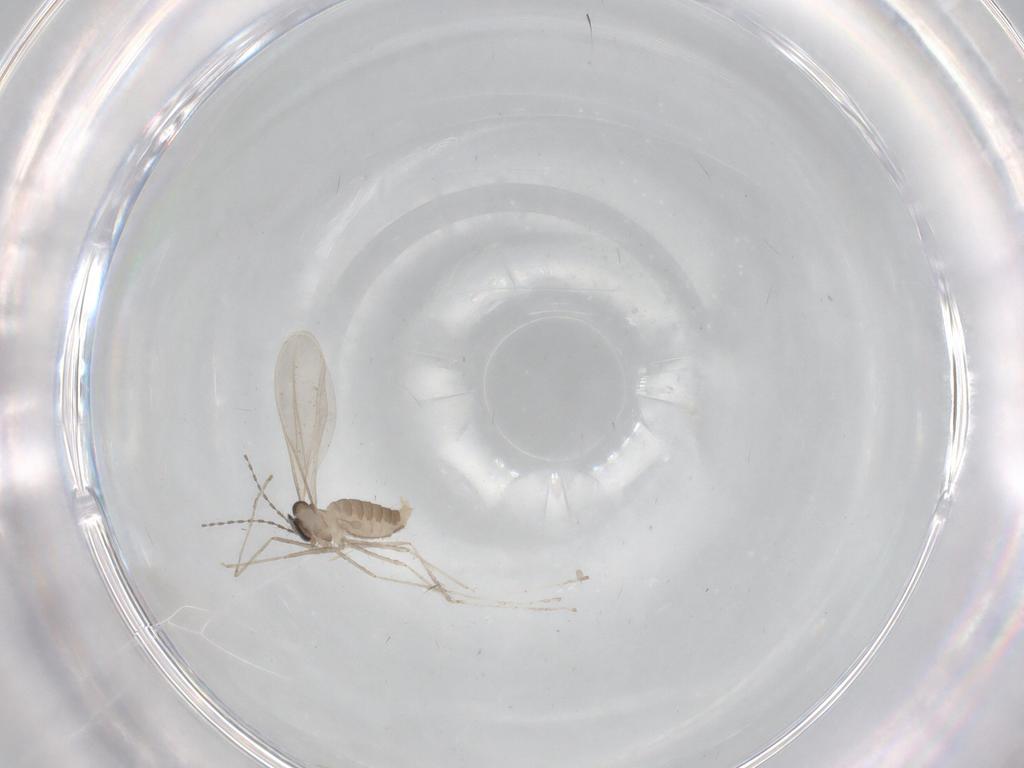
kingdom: Animalia
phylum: Arthropoda
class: Insecta
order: Diptera
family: Cecidomyiidae
